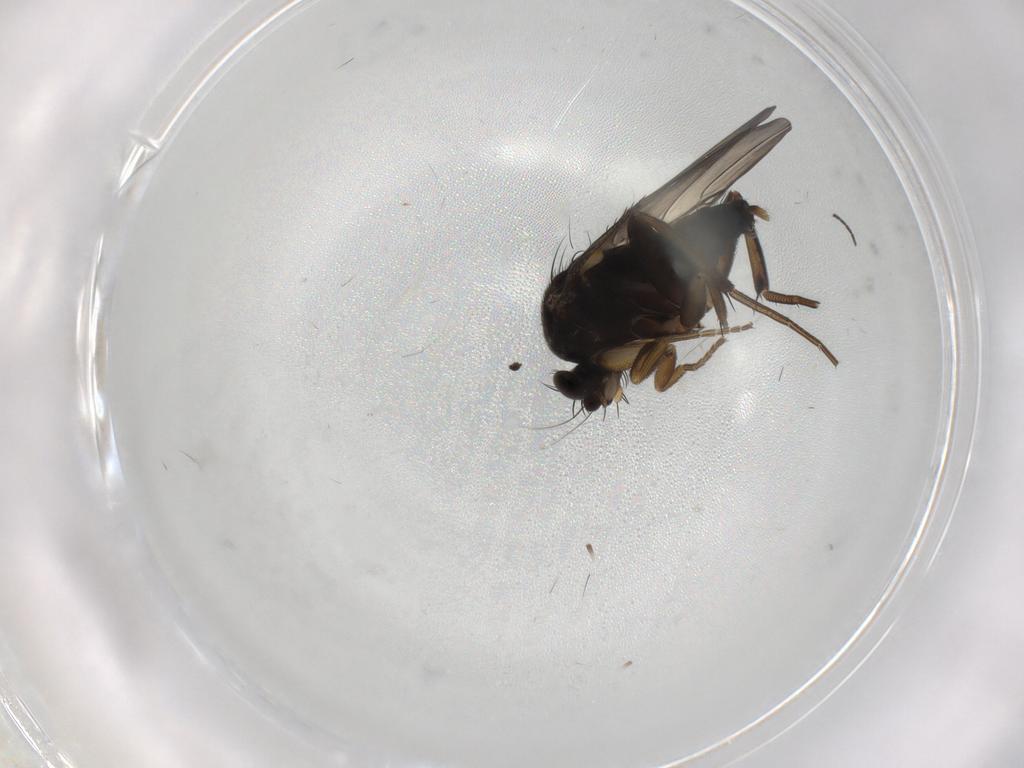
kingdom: Animalia
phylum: Arthropoda
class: Insecta
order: Diptera
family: Phoridae
